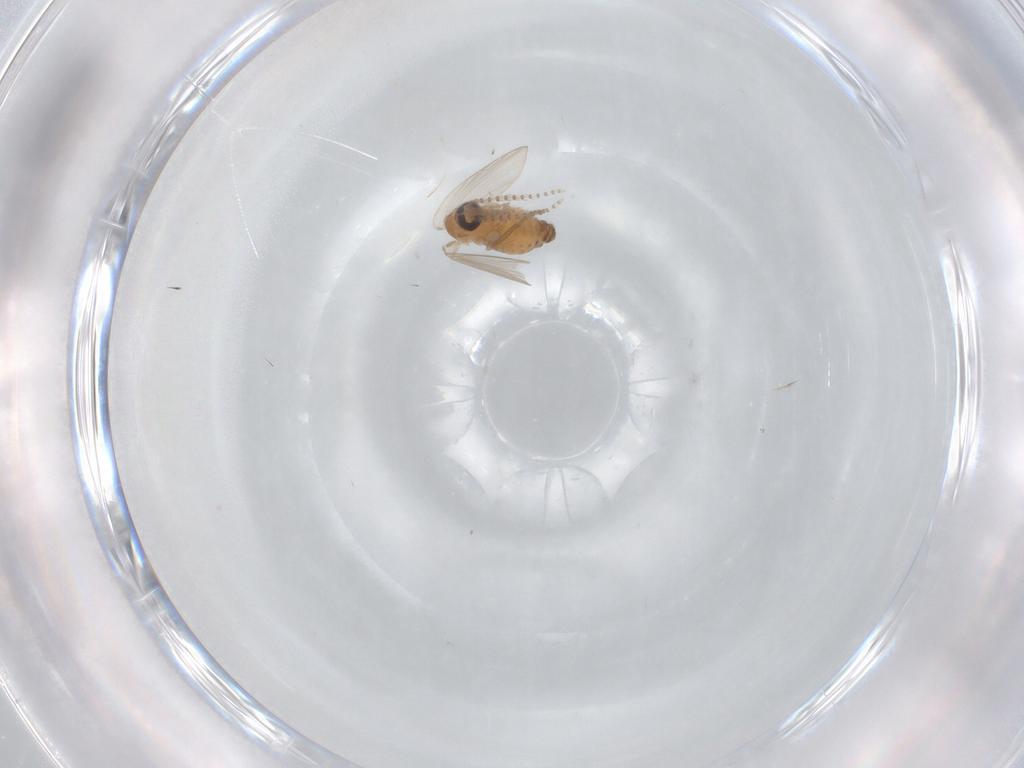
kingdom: Animalia
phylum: Arthropoda
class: Insecta
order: Diptera
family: Psychodidae
